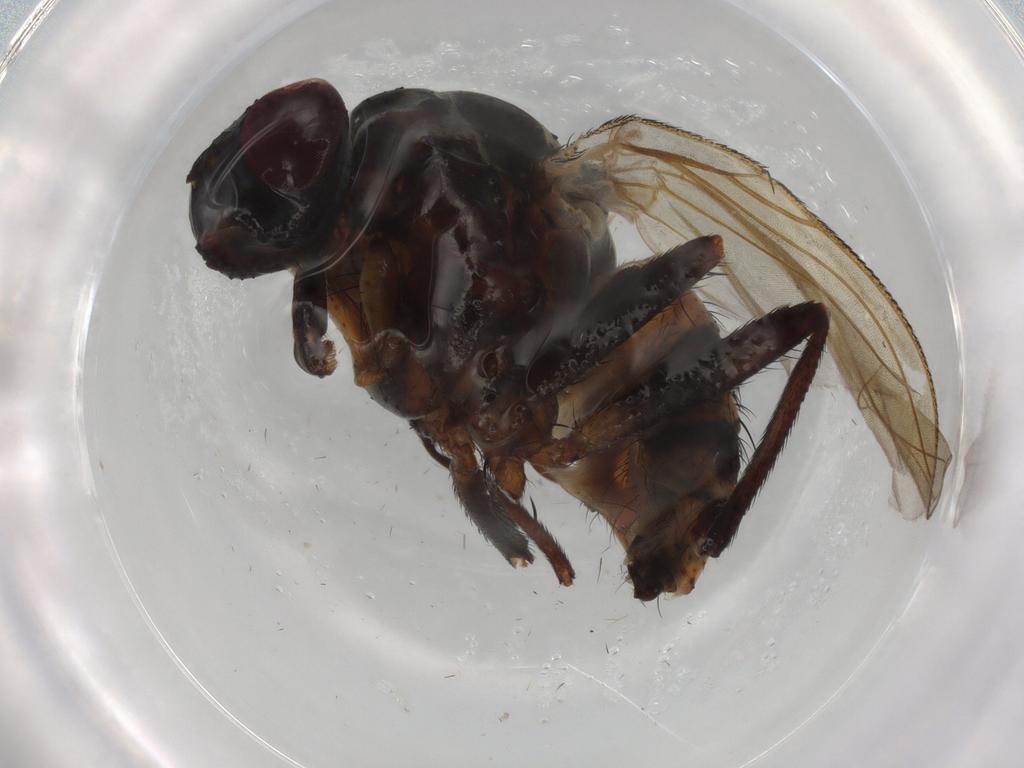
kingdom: Animalia
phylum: Arthropoda
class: Insecta
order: Diptera
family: Anthomyiidae
